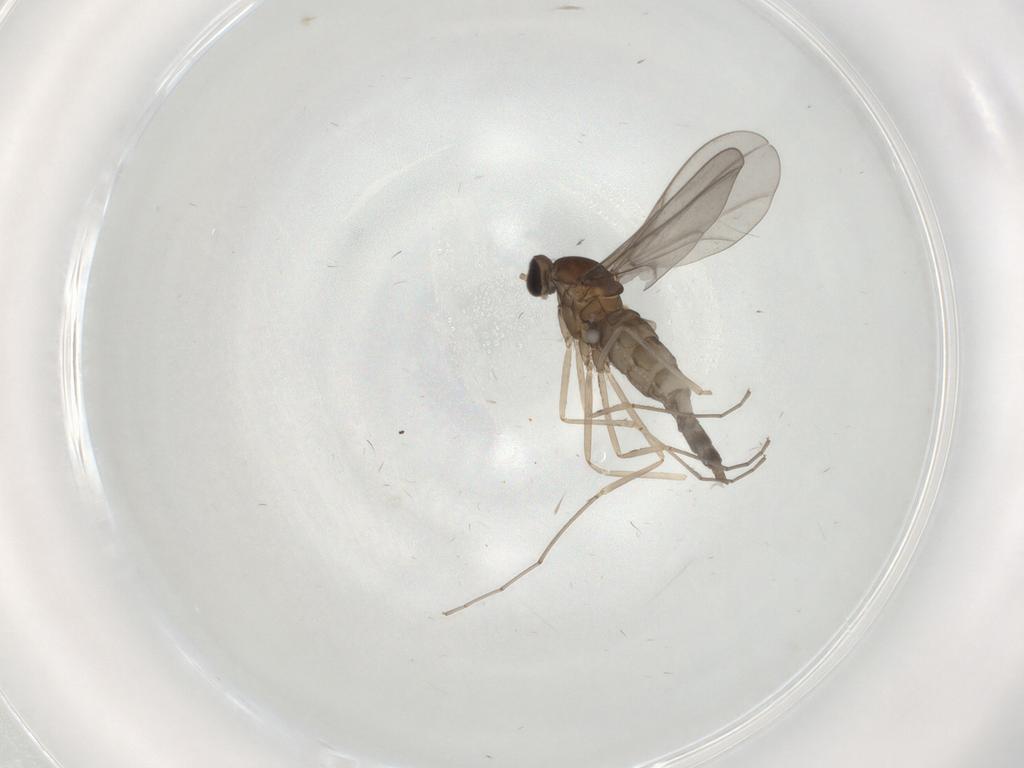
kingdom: Animalia
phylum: Arthropoda
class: Insecta
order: Diptera
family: Cecidomyiidae
